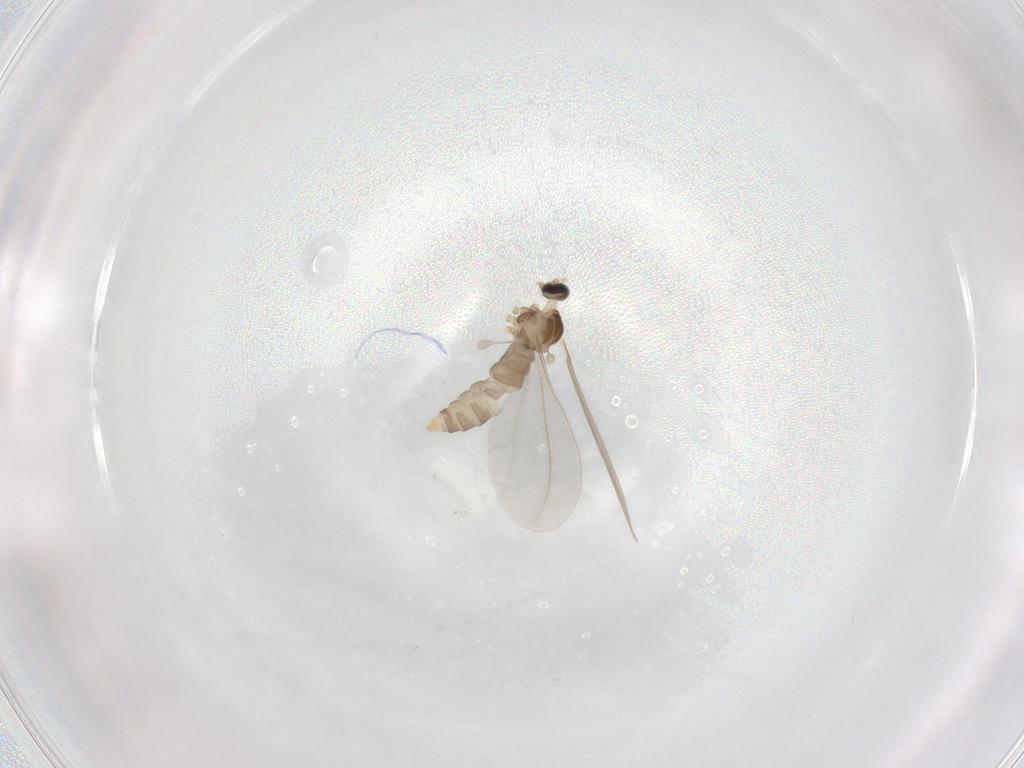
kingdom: Animalia
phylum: Arthropoda
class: Insecta
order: Diptera
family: Cecidomyiidae
